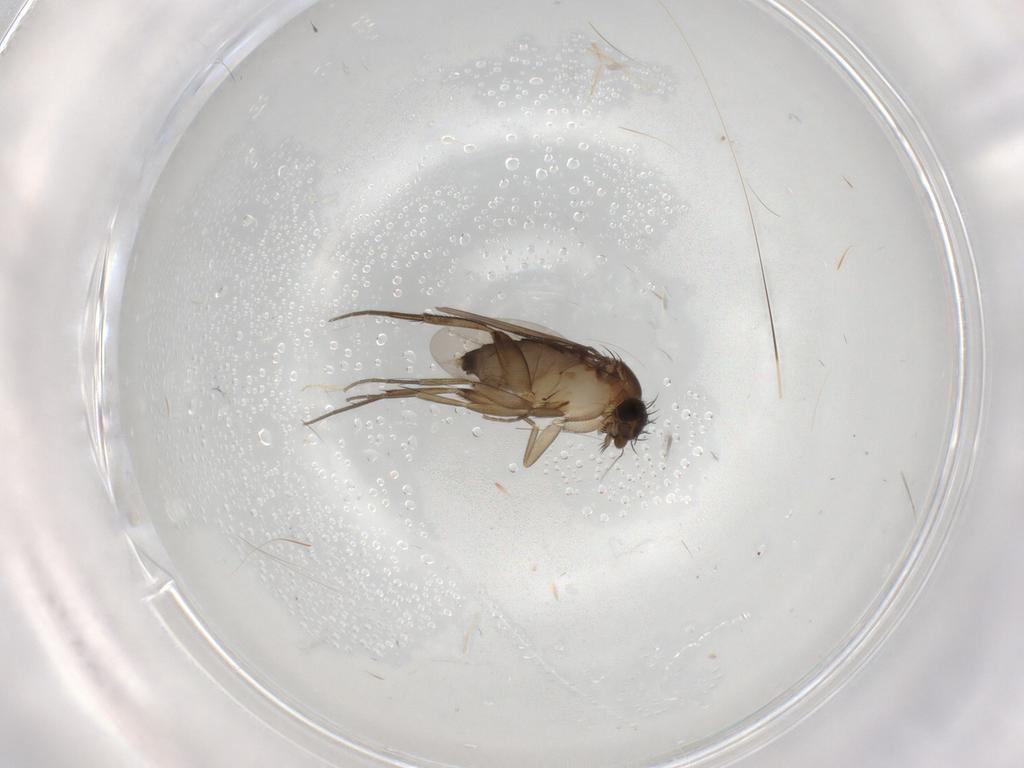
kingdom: Animalia
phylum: Arthropoda
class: Insecta
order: Diptera
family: Phoridae
